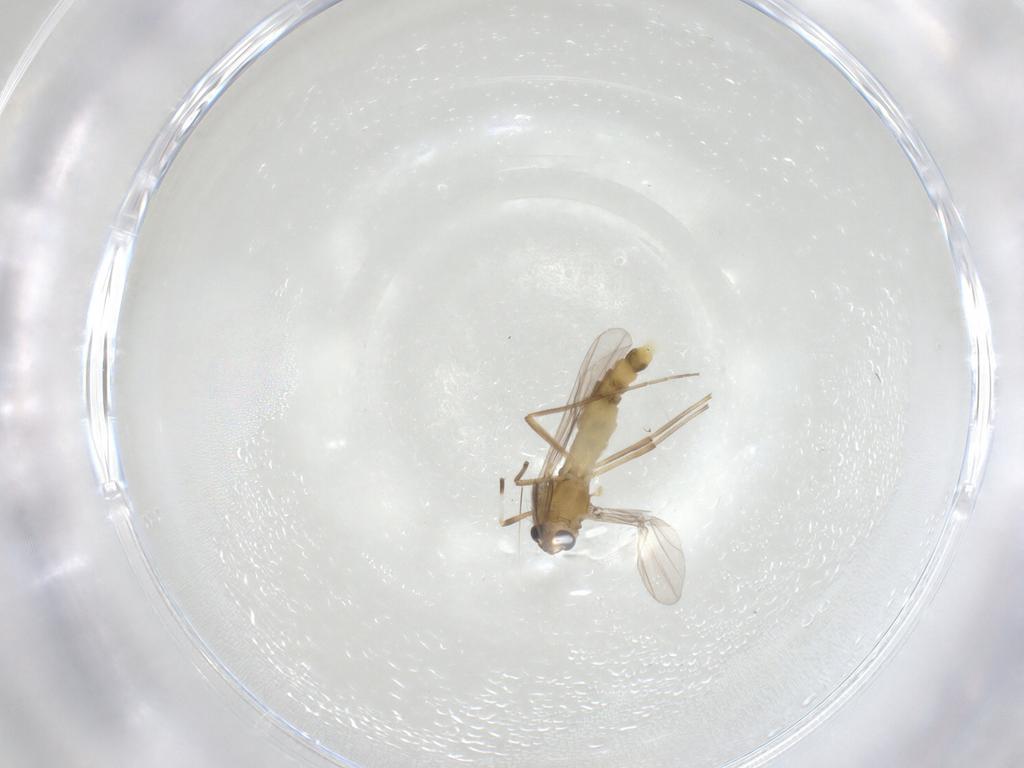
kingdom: Animalia
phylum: Arthropoda
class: Insecta
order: Diptera
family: Chironomidae
